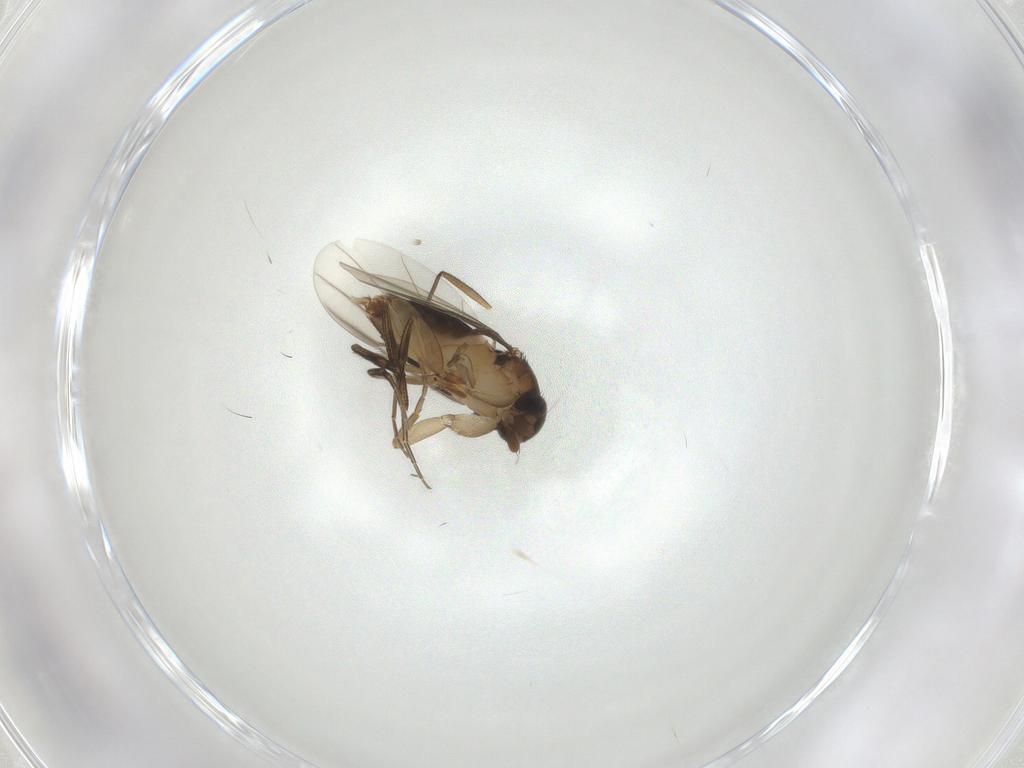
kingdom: Animalia
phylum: Arthropoda
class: Insecta
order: Diptera
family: Phoridae
